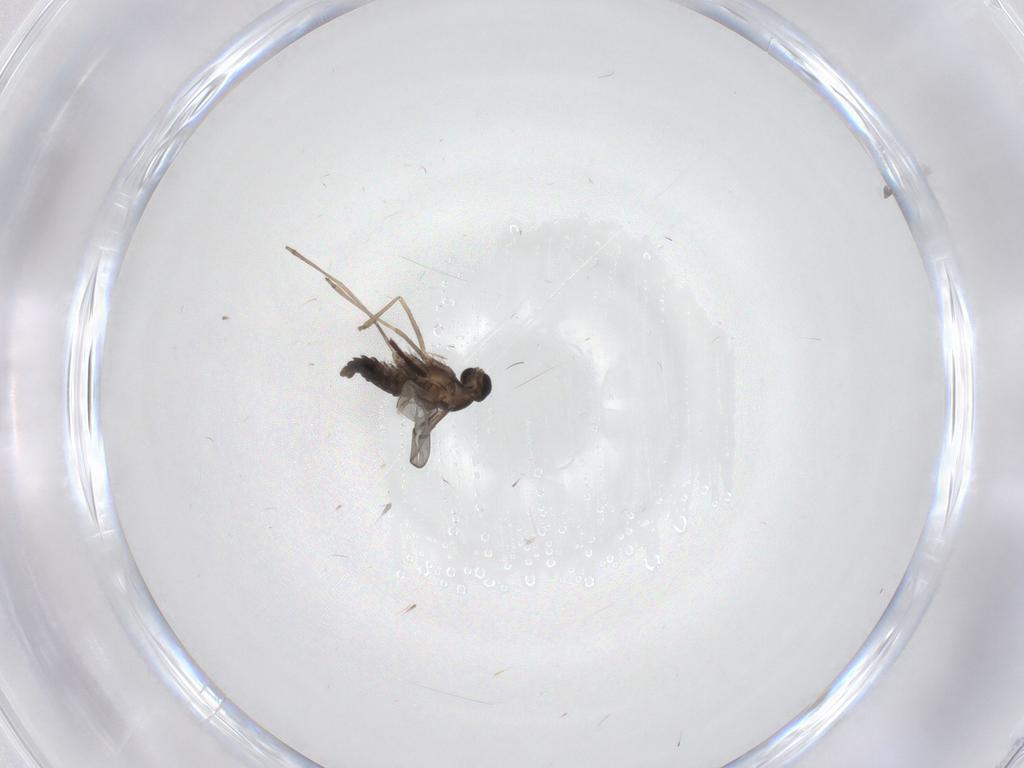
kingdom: Animalia
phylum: Arthropoda
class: Insecta
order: Diptera
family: Sciaridae
